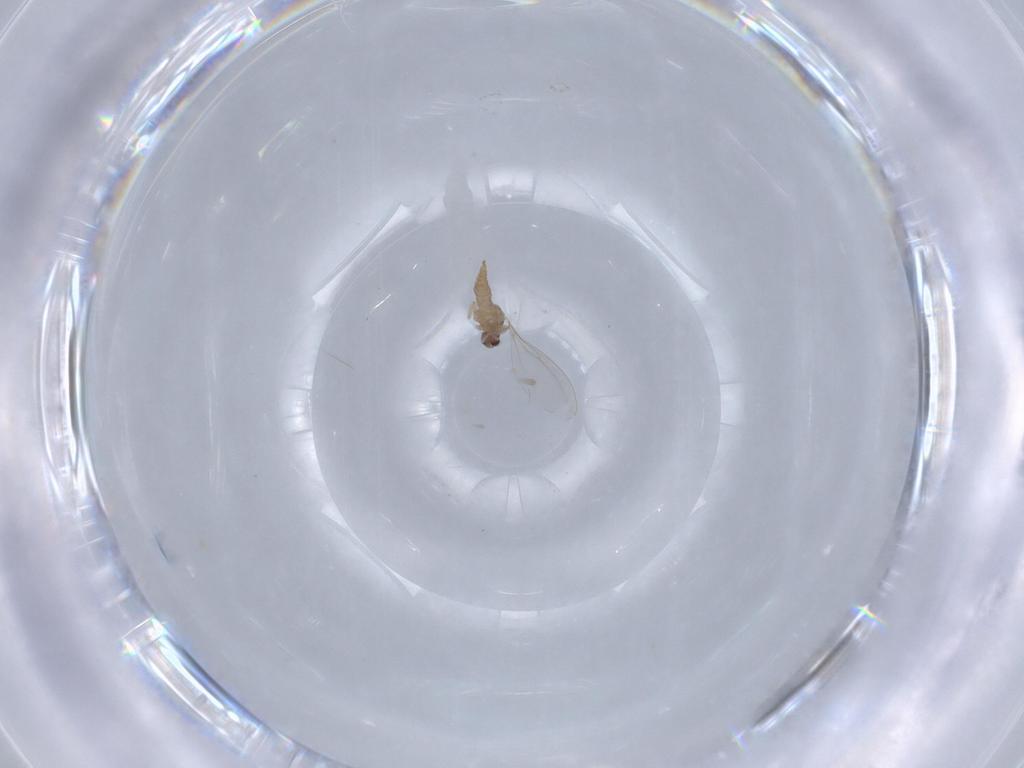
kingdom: Animalia
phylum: Arthropoda
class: Insecta
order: Diptera
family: Cecidomyiidae
